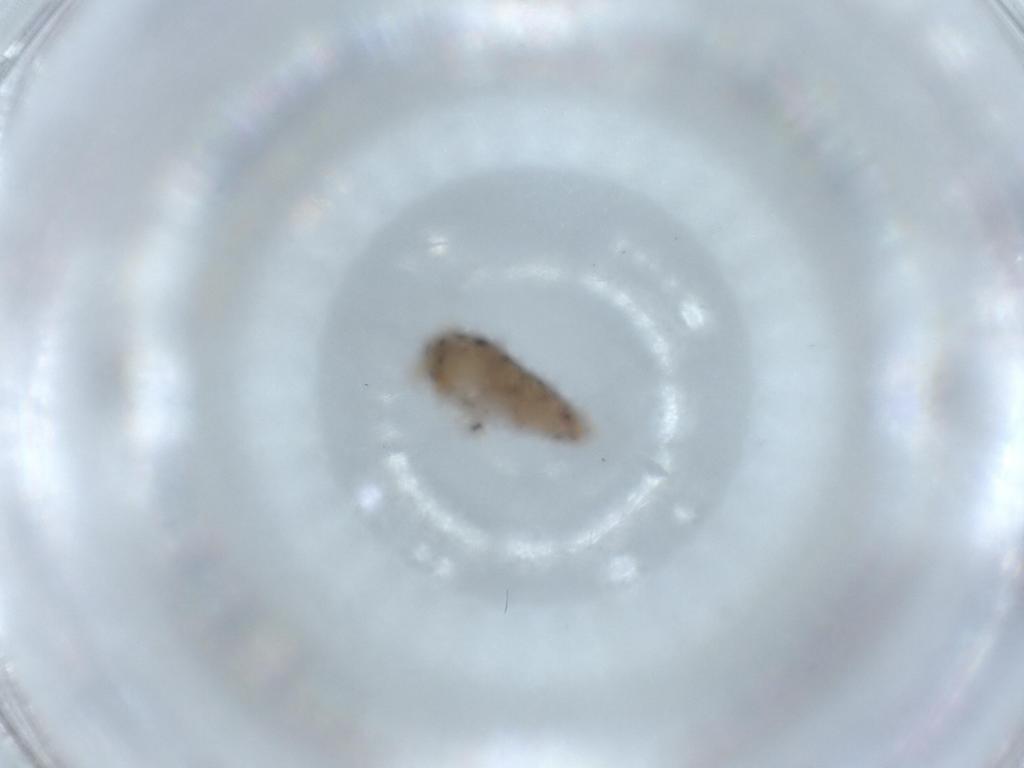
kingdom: Animalia
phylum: Arthropoda
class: Collembola
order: Entomobryomorpha
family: Entomobryidae
